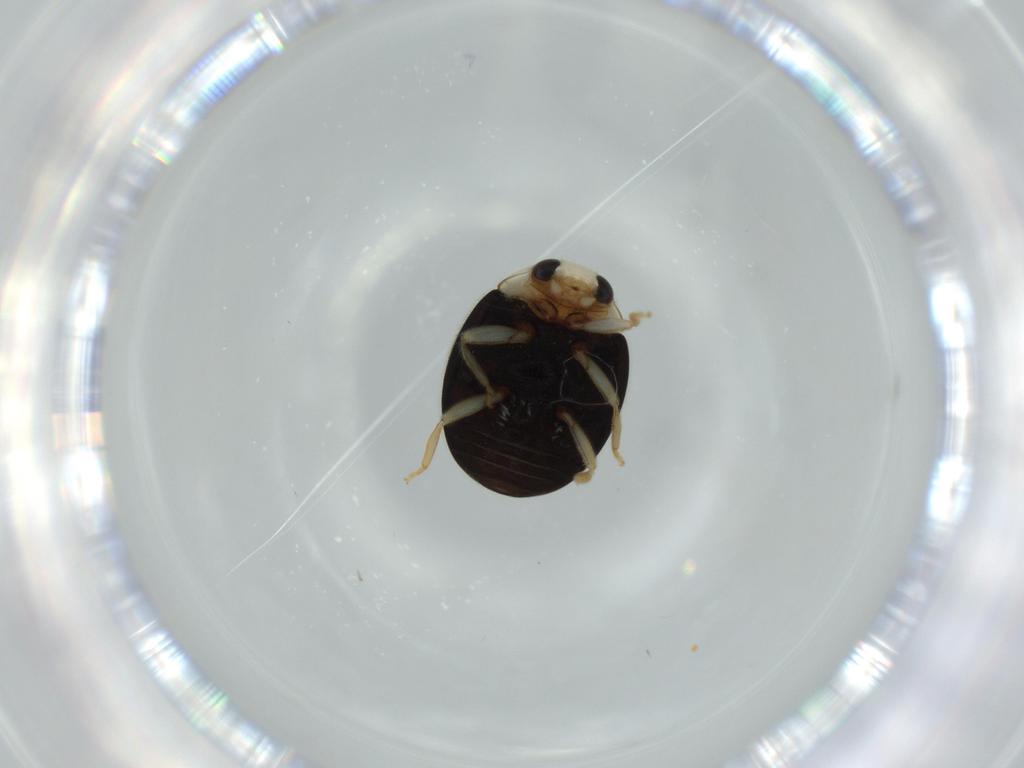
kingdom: Animalia
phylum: Arthropoda
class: Insecta
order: Coleoptera
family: Coccinellidae
